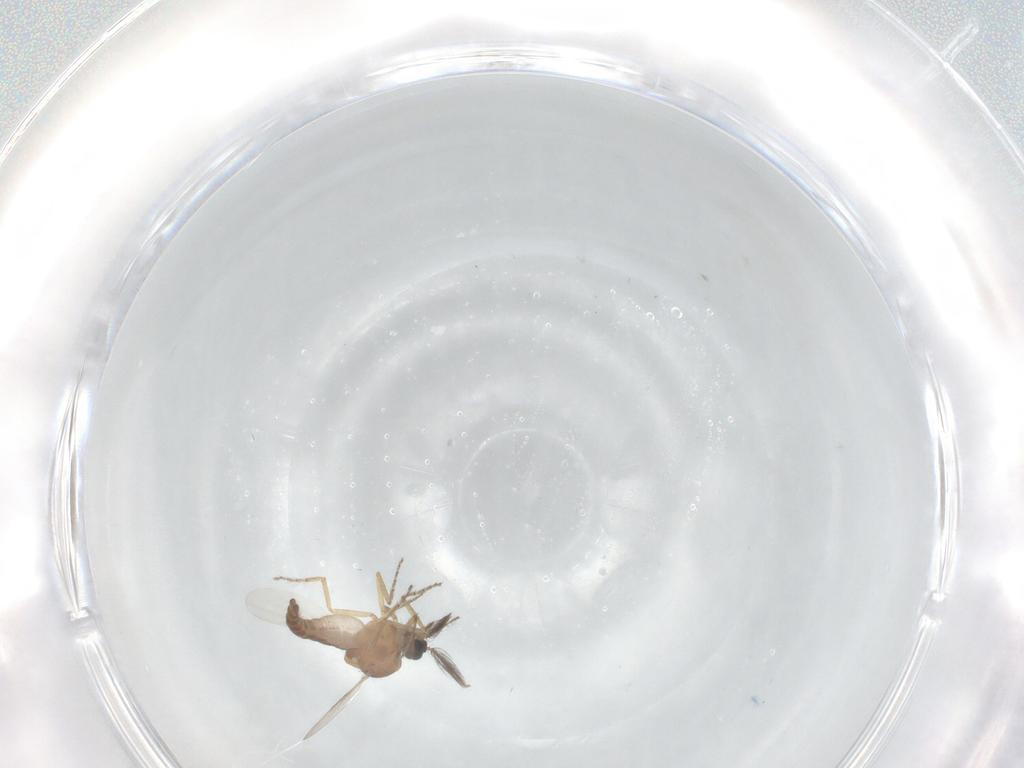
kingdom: Animalia
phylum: Arthropoda
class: Insecta
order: Diptera
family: Ceratopogonidae
